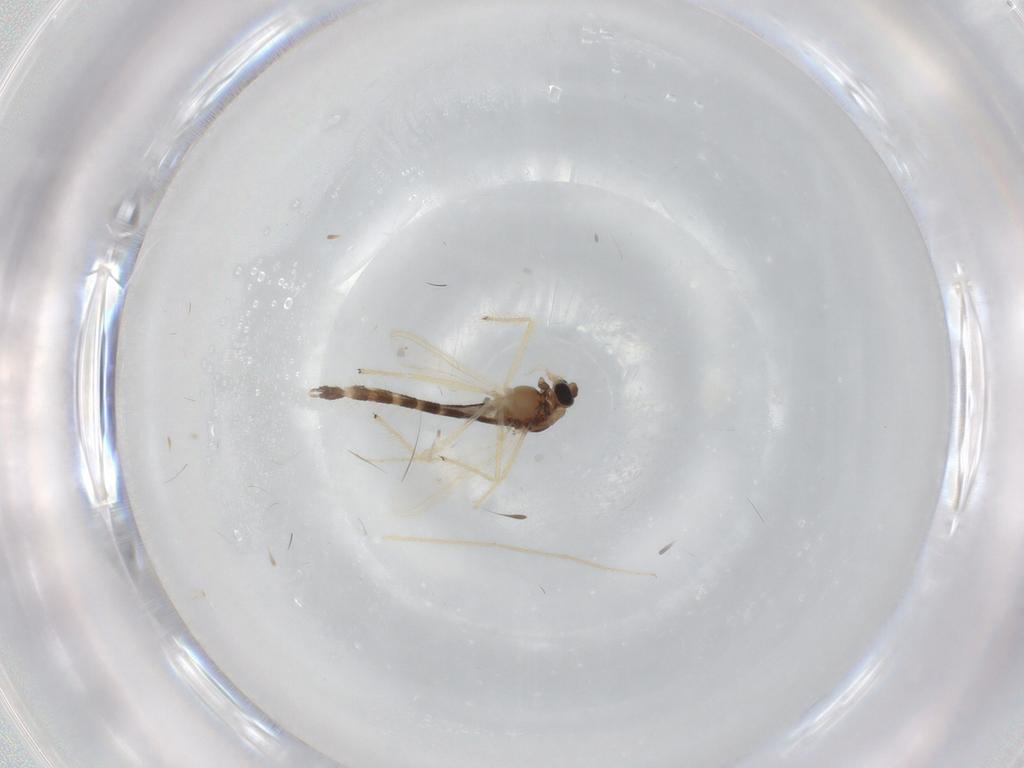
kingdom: Animalia
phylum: Arthropoda
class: Insecta
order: Diptera
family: Chironomidae
